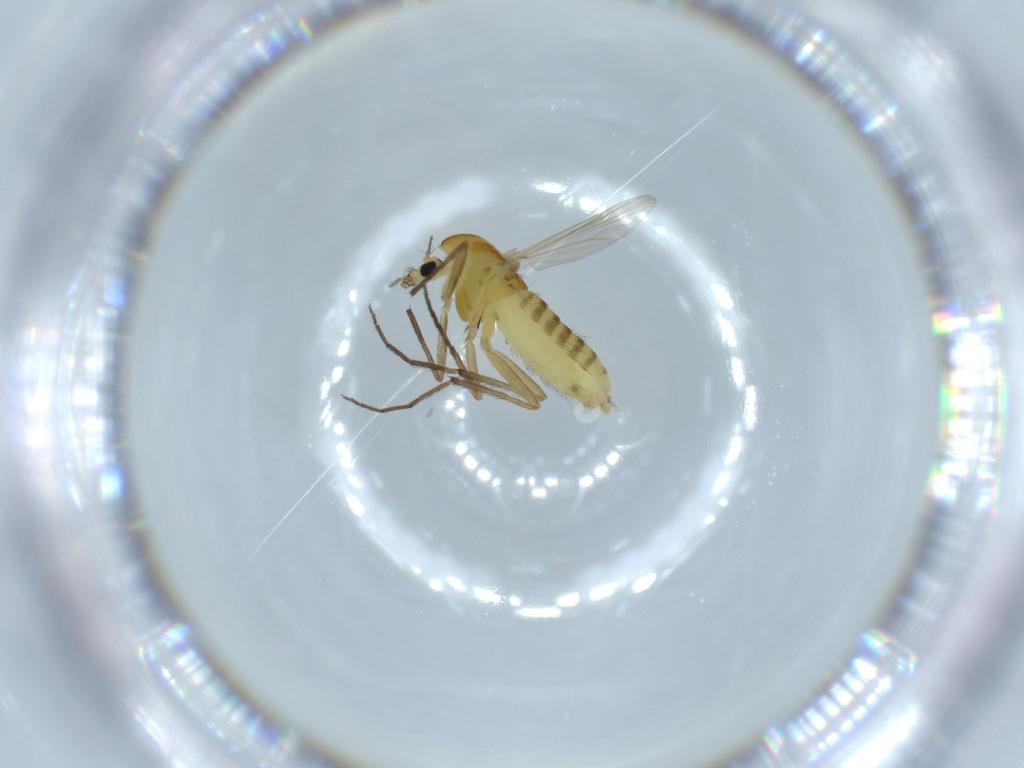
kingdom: Animalia
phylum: Arthropoda
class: Insecta
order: Diptera
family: Chironomidae
